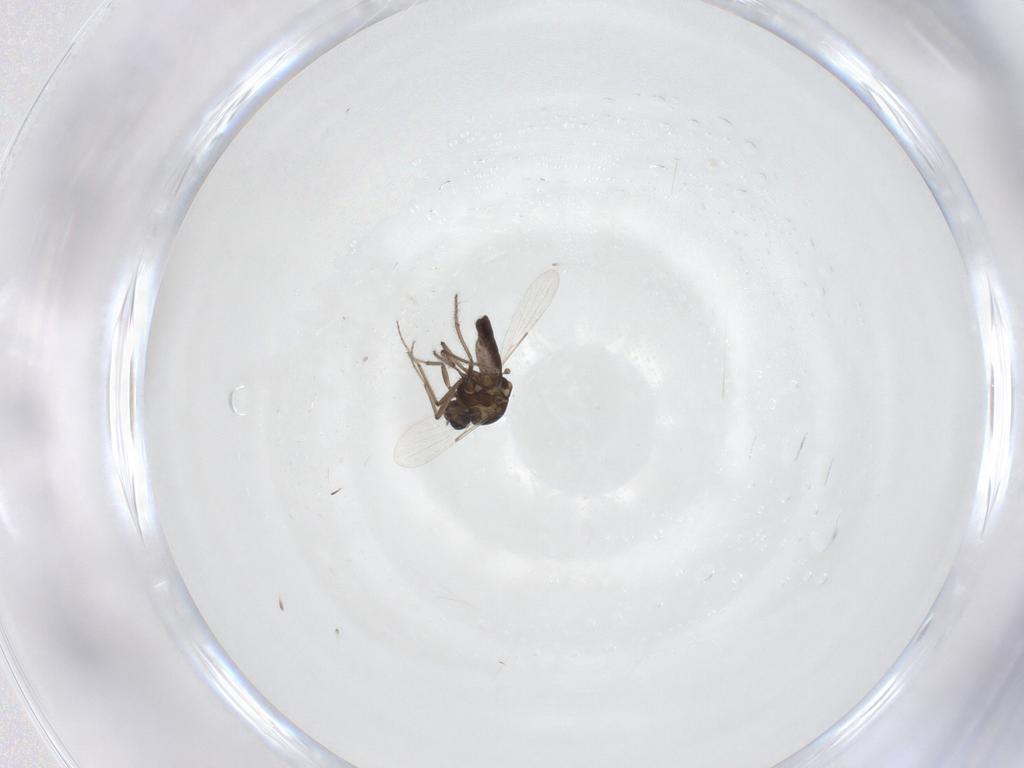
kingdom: Animalia
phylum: Arthropoda
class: Insecta
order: Diptera
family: Ceratopogonidae
